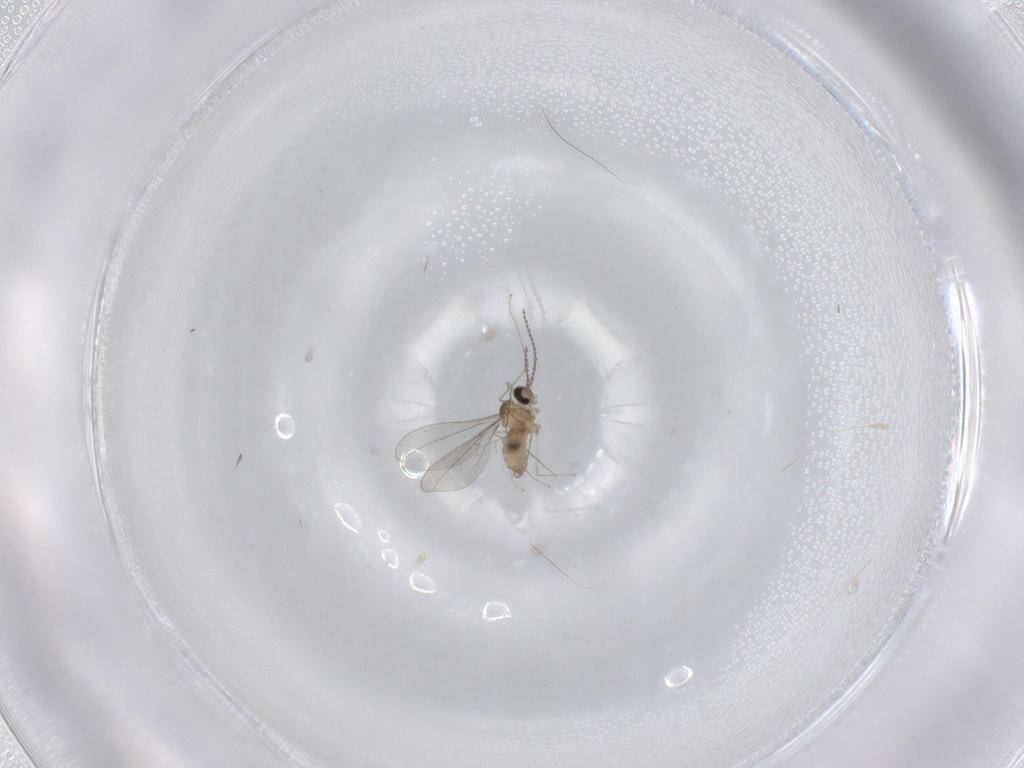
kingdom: Animalia
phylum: Arthropoda
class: Insecta
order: Diptera
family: Cecidomyiidae
